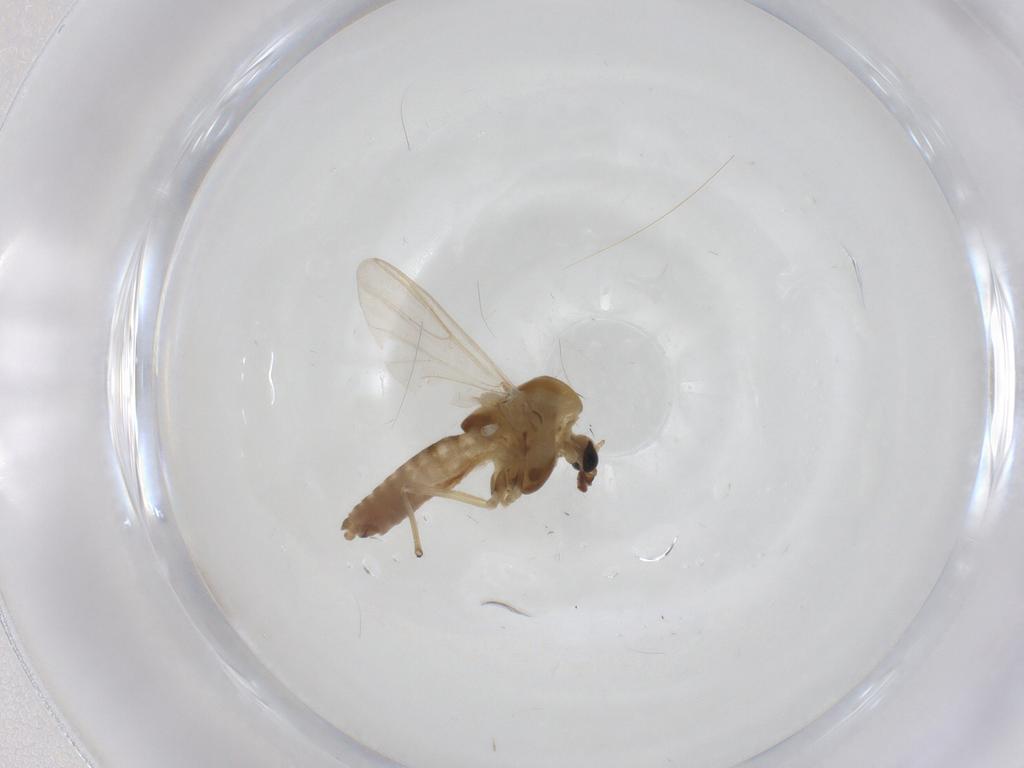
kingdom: Animalia
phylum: Arthropoda
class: Insecta
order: Diptera
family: Chironomidae
